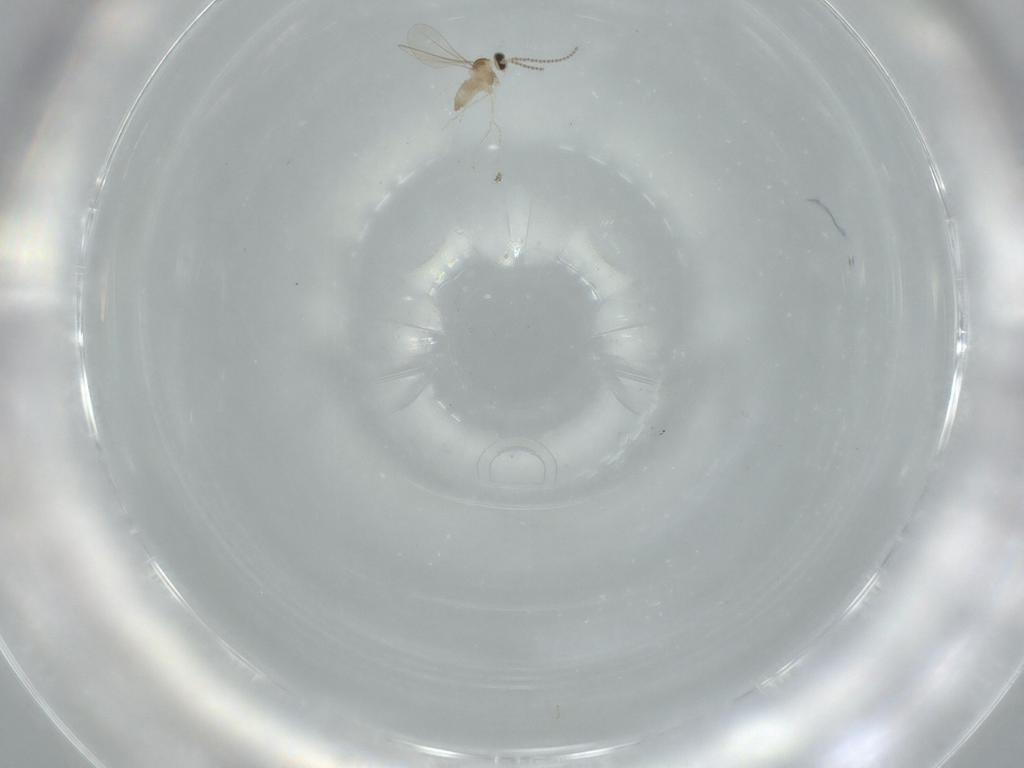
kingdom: Animalia
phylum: Arthropoda
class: Insecta
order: Diptera
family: Cecidomyiidae
